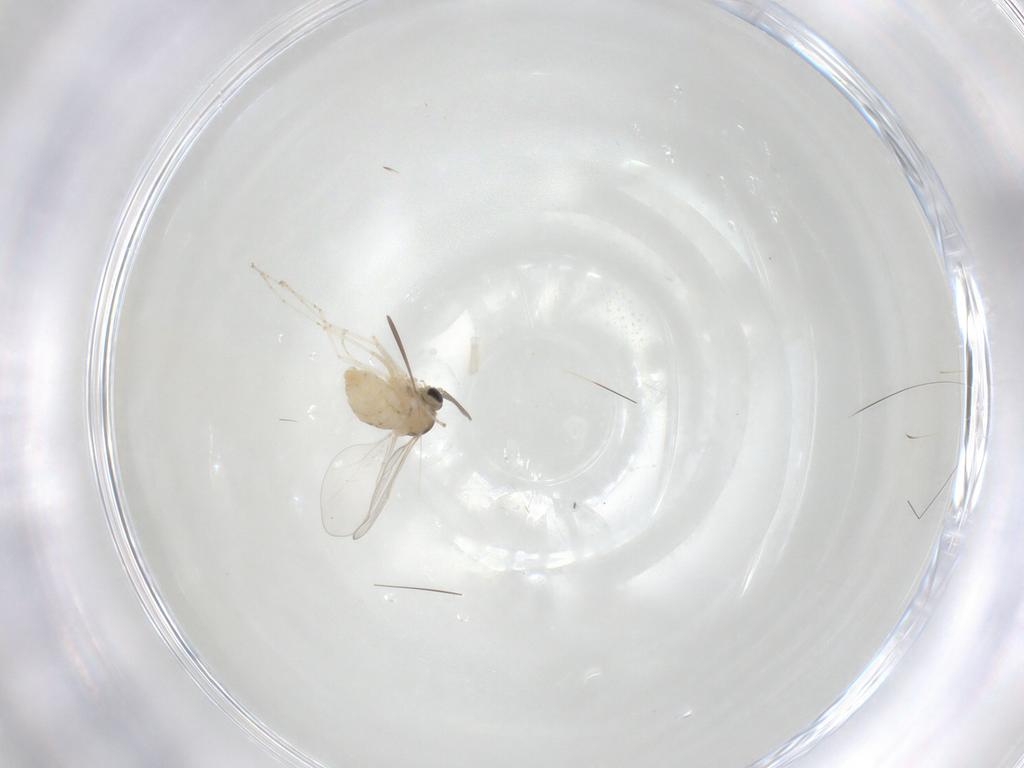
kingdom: Animalia
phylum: Arthropoda
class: Insecta
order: Diptera
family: Cecidomyiidae
